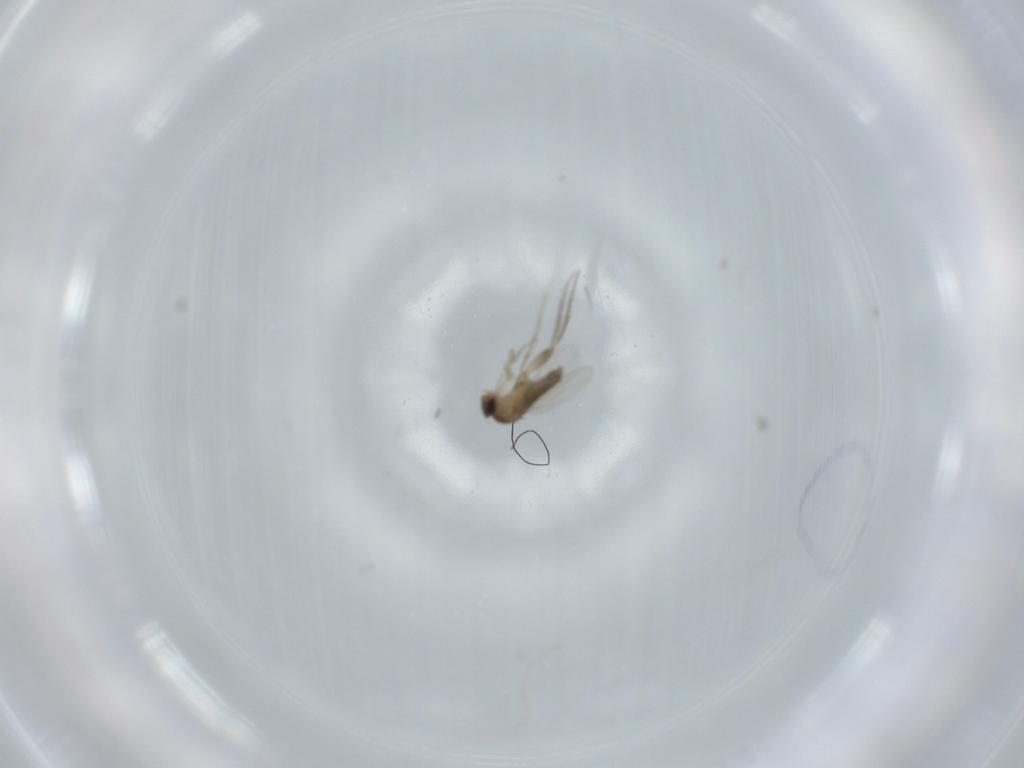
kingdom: Animalia
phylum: Arthropoda
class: Insecta
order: Diptera
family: Phoridae
